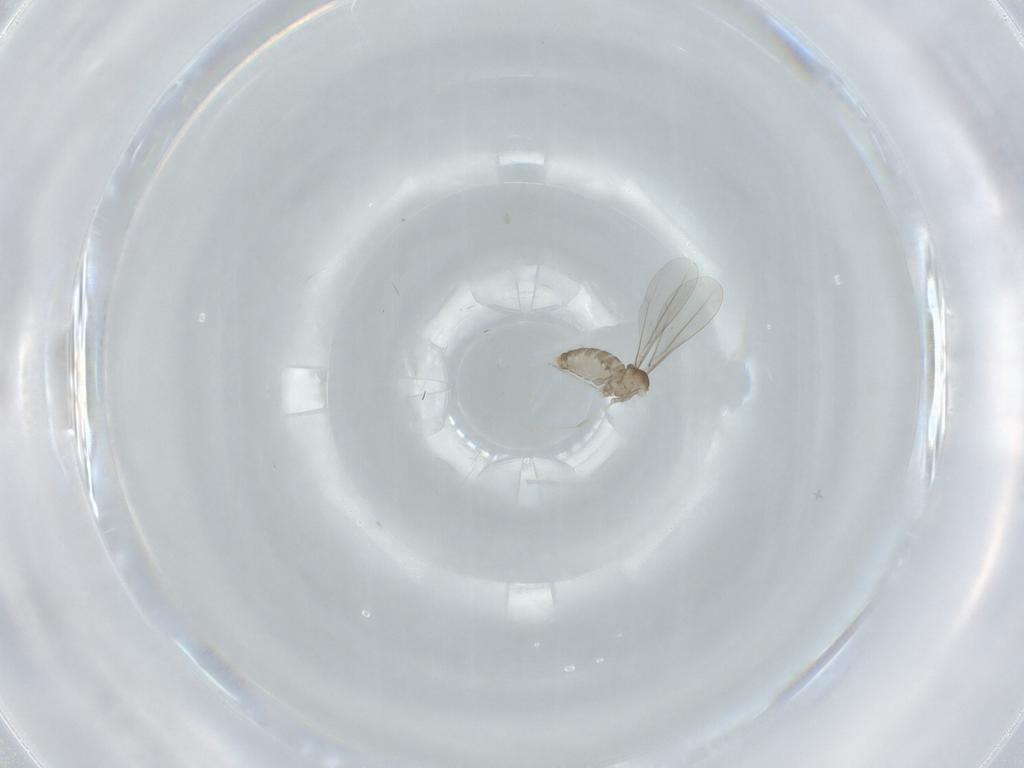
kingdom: Animalia
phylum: Arthropoda
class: Insecta
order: Diptera
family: Cecidomyiidae
